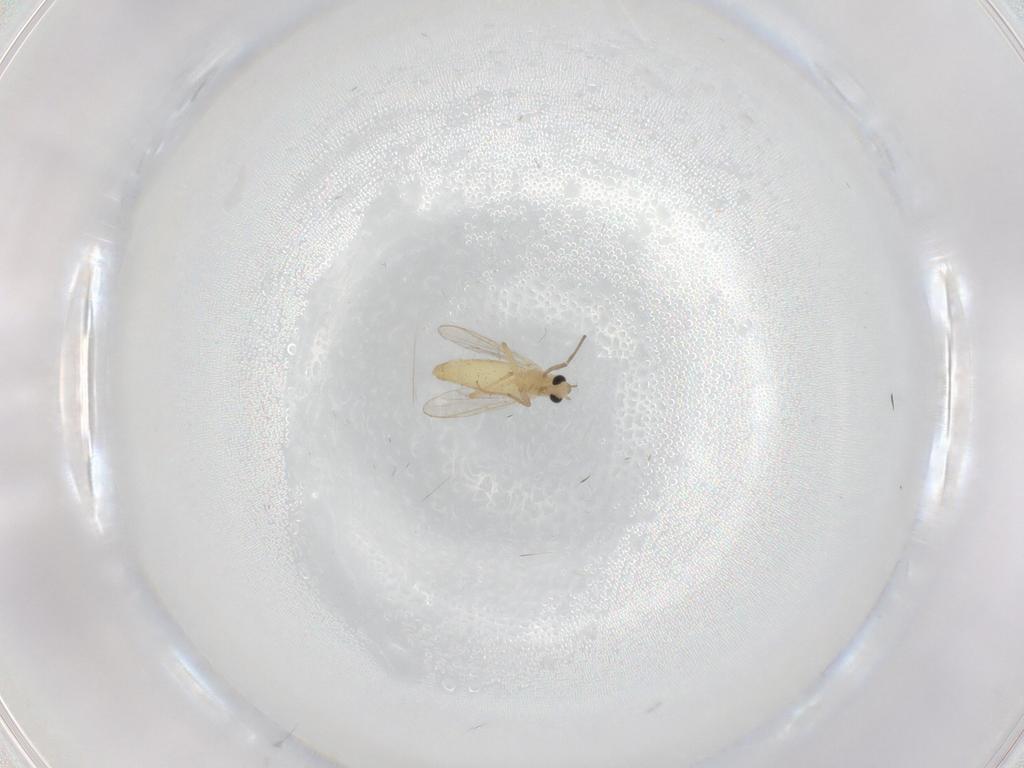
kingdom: Animalia
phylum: Arthropoda
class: Insecta
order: Diptera
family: Chironomidae
